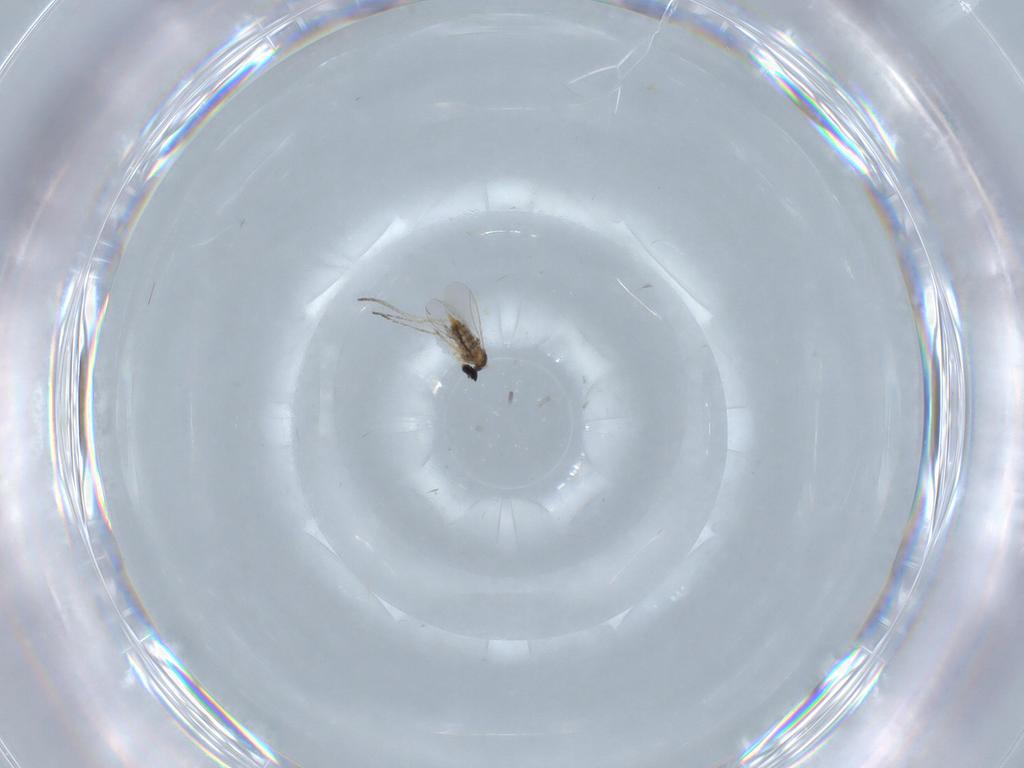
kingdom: Animalia
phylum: Arthropoda
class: Insecta
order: Diptera
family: Cecidomyiidae
